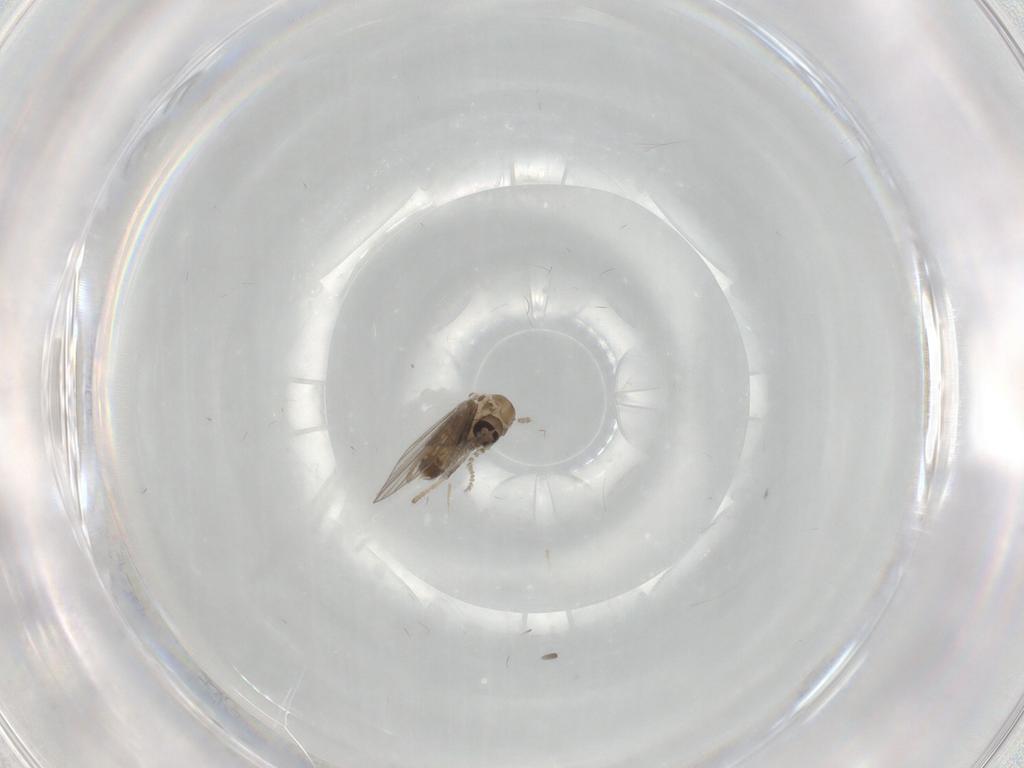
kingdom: Animalia
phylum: Arthropoda
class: Insecta
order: Diptera
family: Psychodidae
